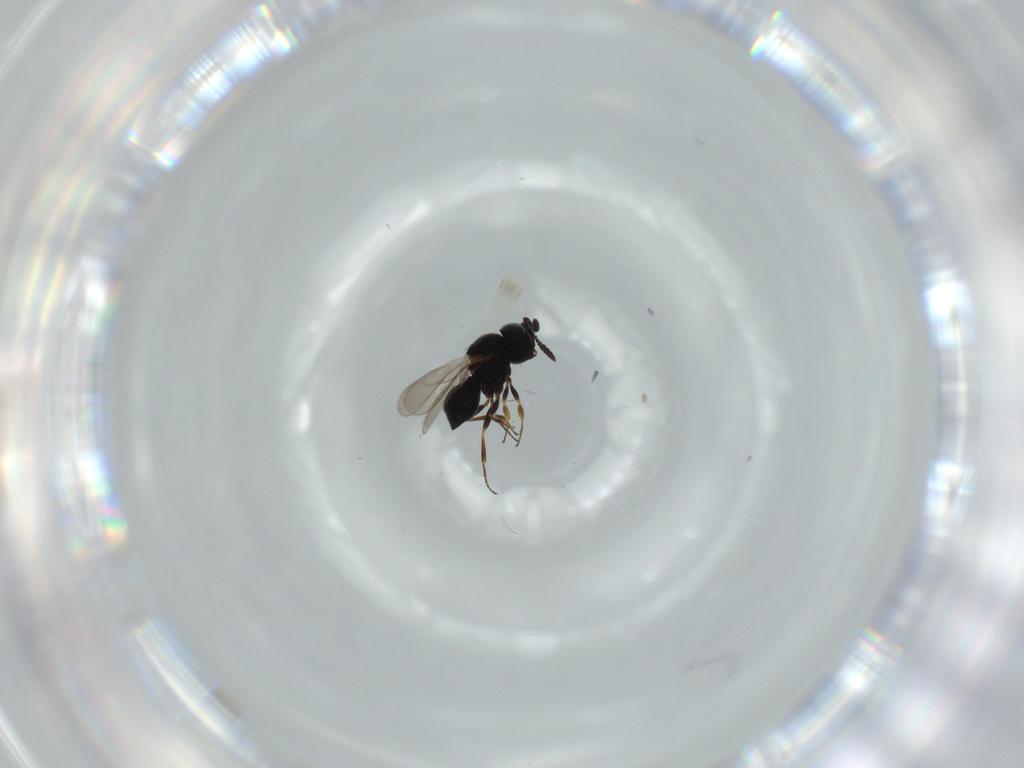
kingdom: Animalia
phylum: Arthropoda
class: Insecta
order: Hymenoptera
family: Scelionidae
